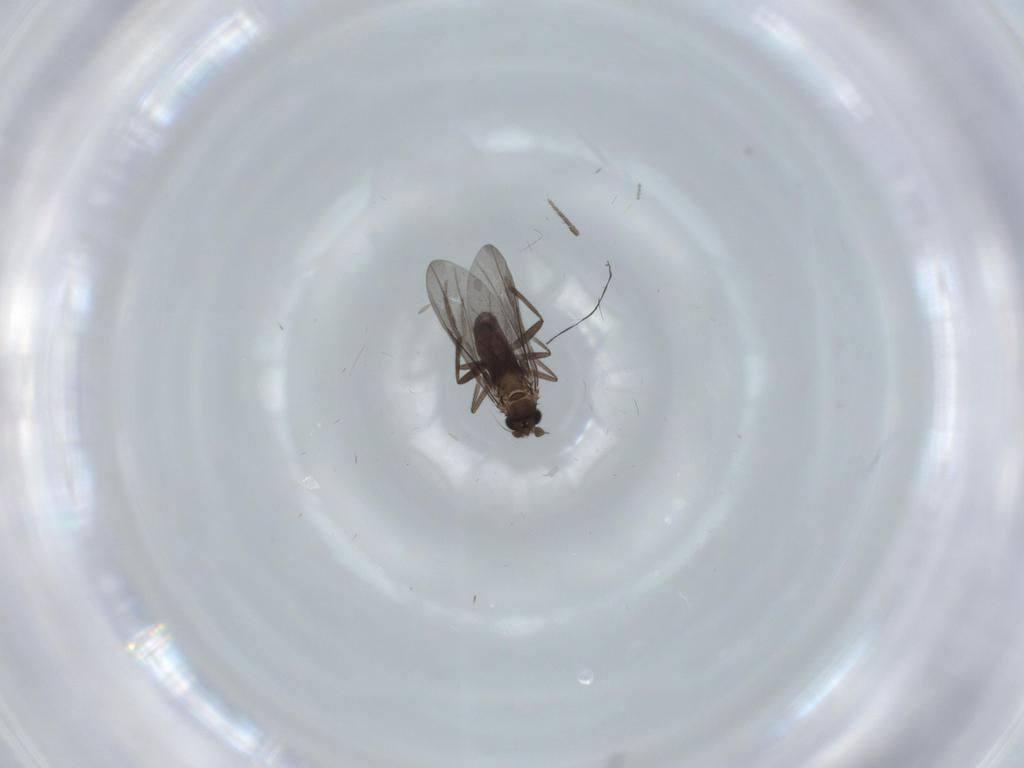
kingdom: Animalia
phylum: Arthropoda
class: Insecta
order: Diptera
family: Phoridae
